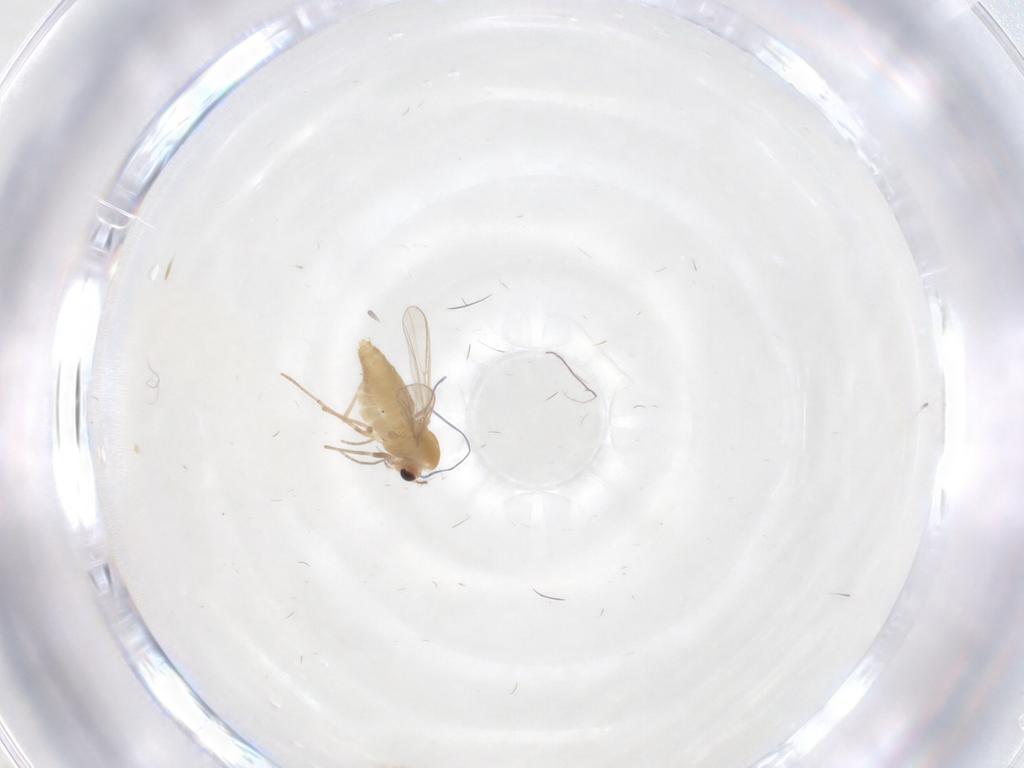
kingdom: Animalia
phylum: Arthropoda
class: Insecta
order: Diptera
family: Chironomidae
